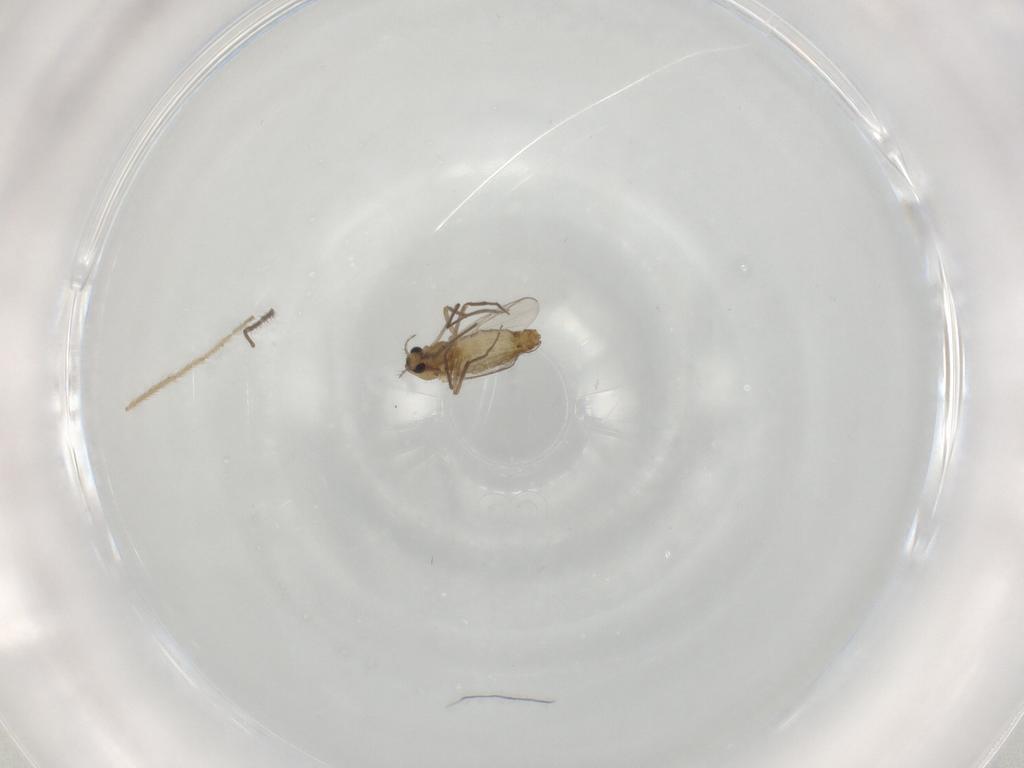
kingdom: Animalia
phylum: Arthropoda
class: Insecta
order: Diptera
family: Chironomidae
